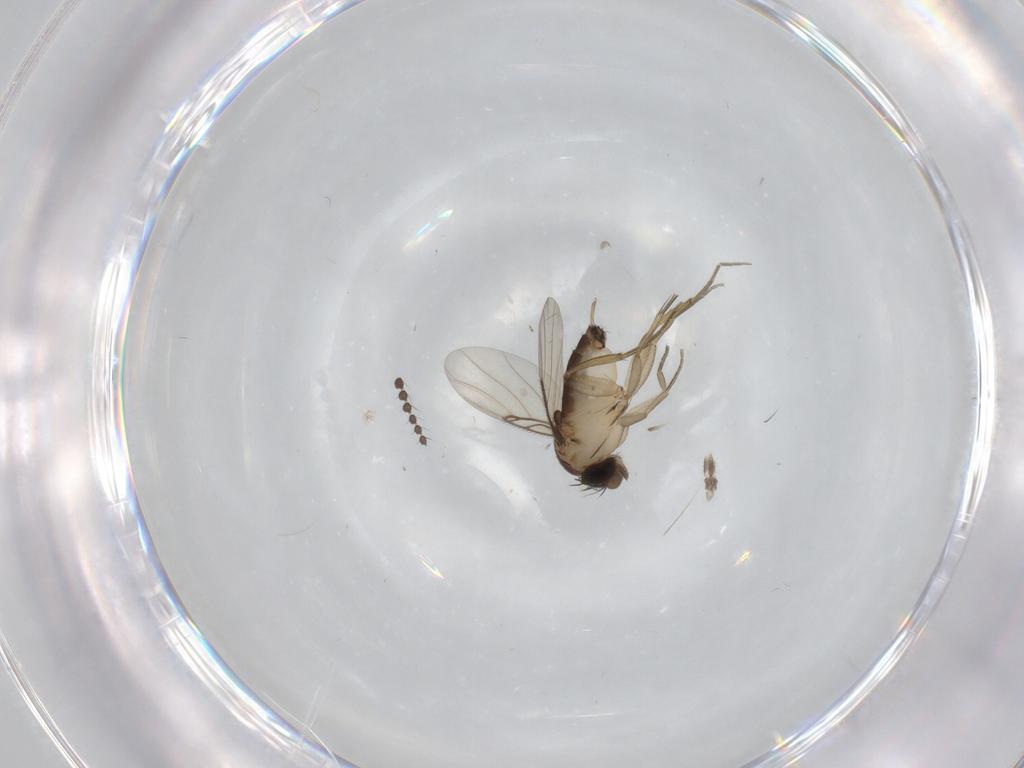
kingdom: Animalia
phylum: Arthropoda
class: Insecta
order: Diptera
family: Phoridae
